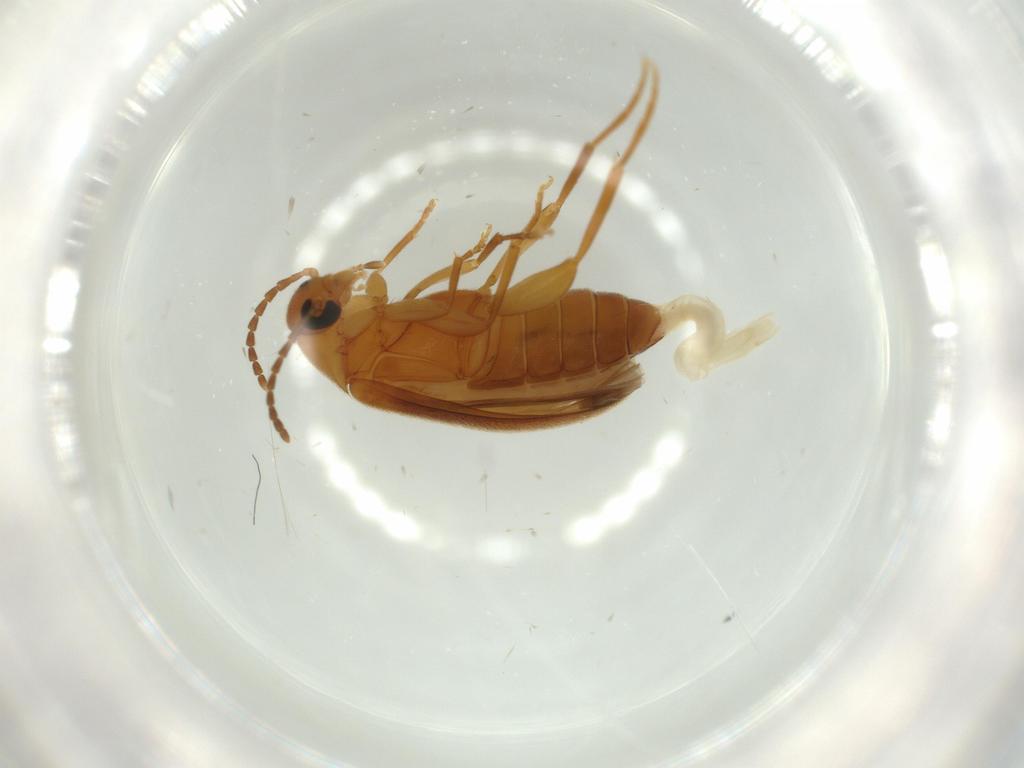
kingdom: Animalia
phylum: Arthropoda
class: Insecta
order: Coleoptera
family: Scraptiidae
